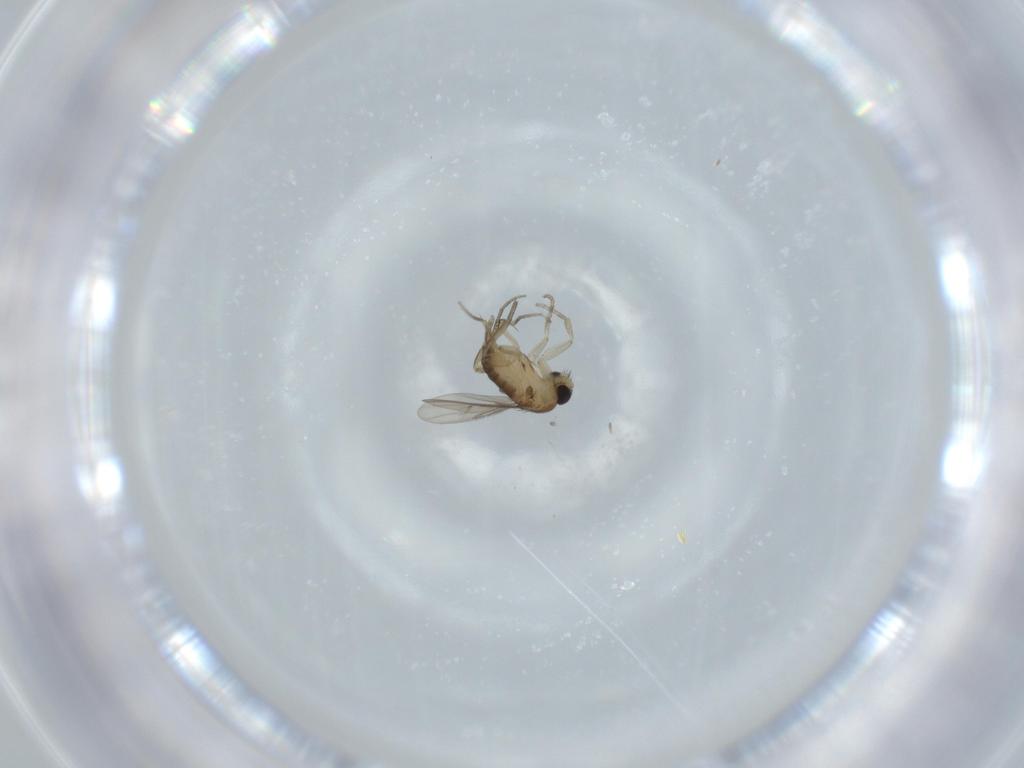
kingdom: Animalia
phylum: Arthropoda
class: Insecta
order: Diptera
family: Phoridae
